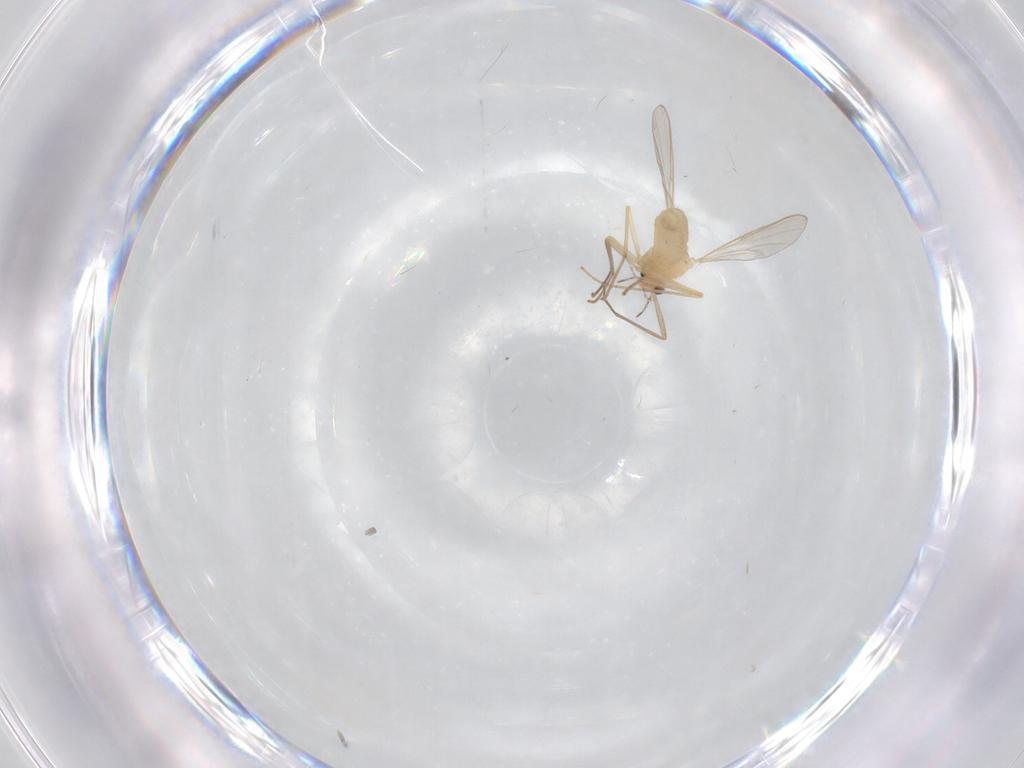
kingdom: Animalia
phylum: Arthropoda
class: Insecta
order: Diptera
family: Chironomidae
